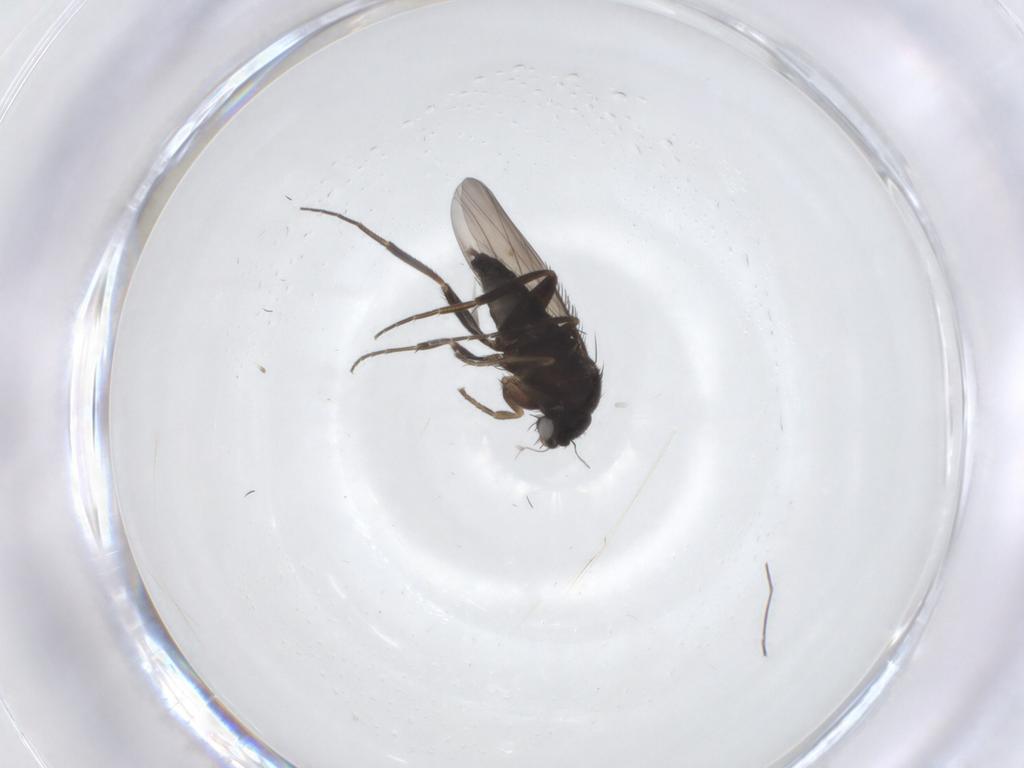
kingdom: Animalia
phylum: Arthropoda
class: Insecta
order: Diptera
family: Phoridae
